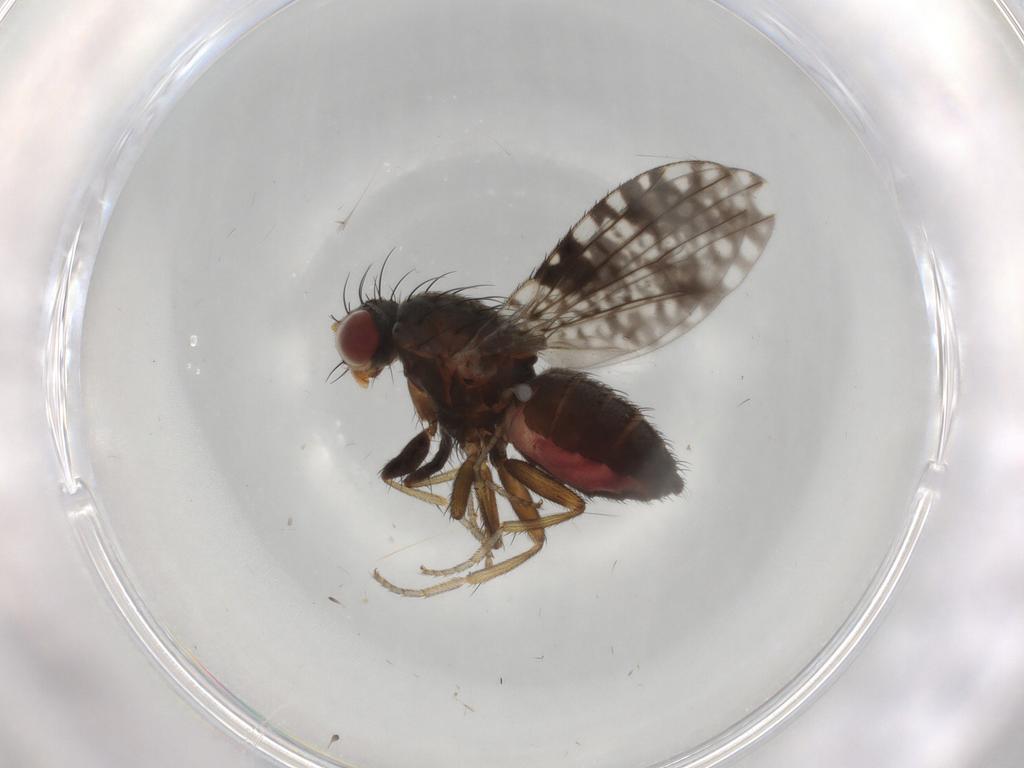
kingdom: Animalia
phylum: Arthropoda
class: Insecta
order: Diptera
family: Tephritidae
